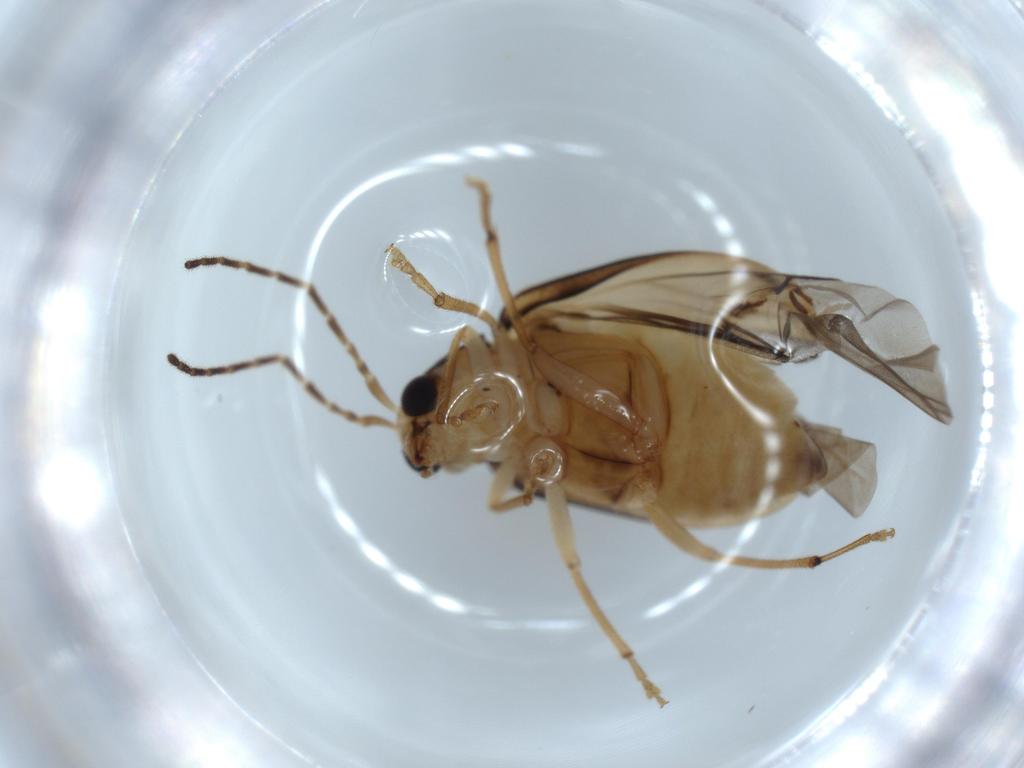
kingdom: Animalia
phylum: Arthropoda
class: Insecta
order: Coleoptera
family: Chrysomelidae
